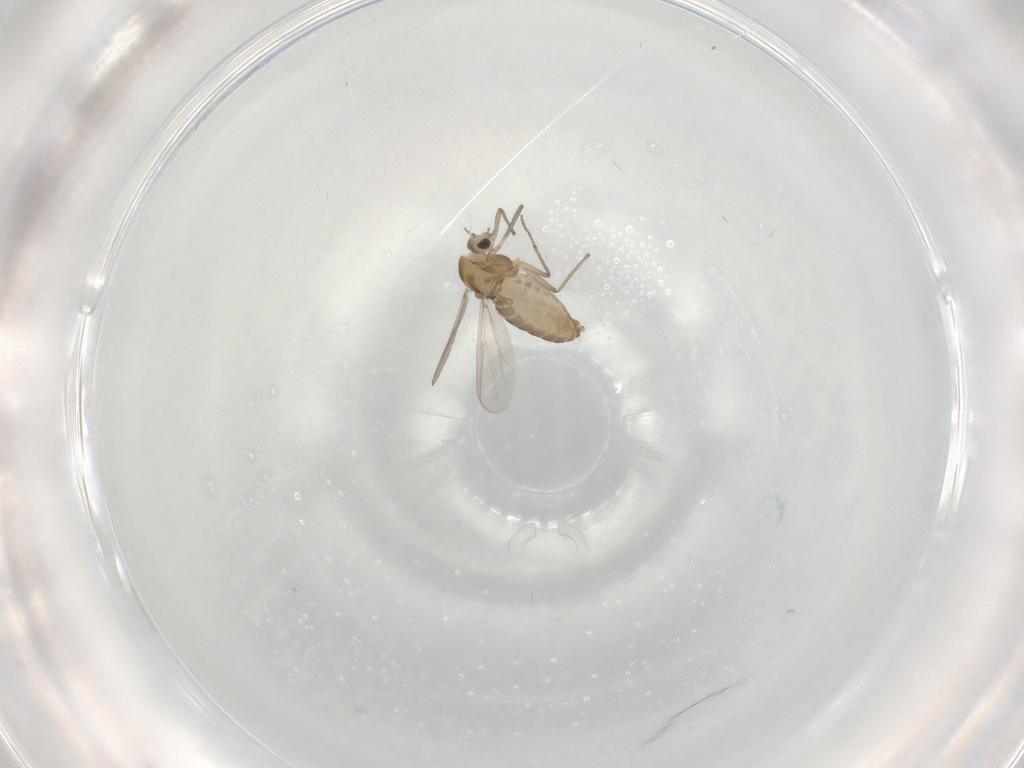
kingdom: Animalia
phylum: Arthropoda
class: Insecta
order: Diptera
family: Chironomidae
